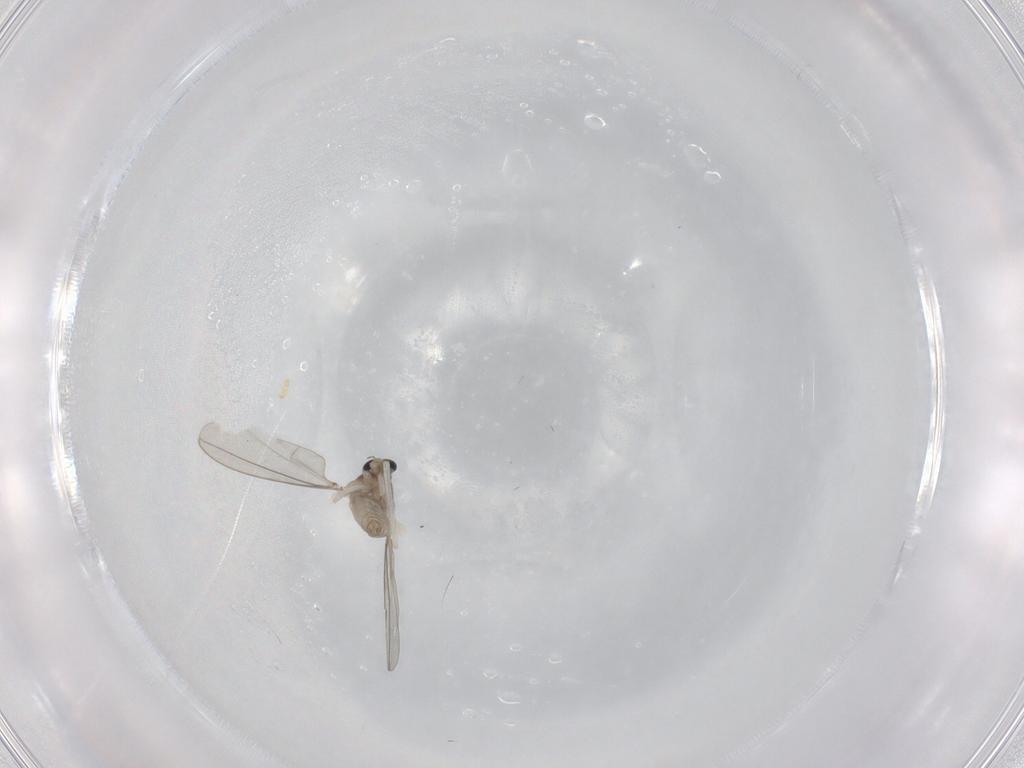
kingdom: Animalia
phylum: Arthropoda
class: Insecta
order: Diptera
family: Cecidomyiidae
